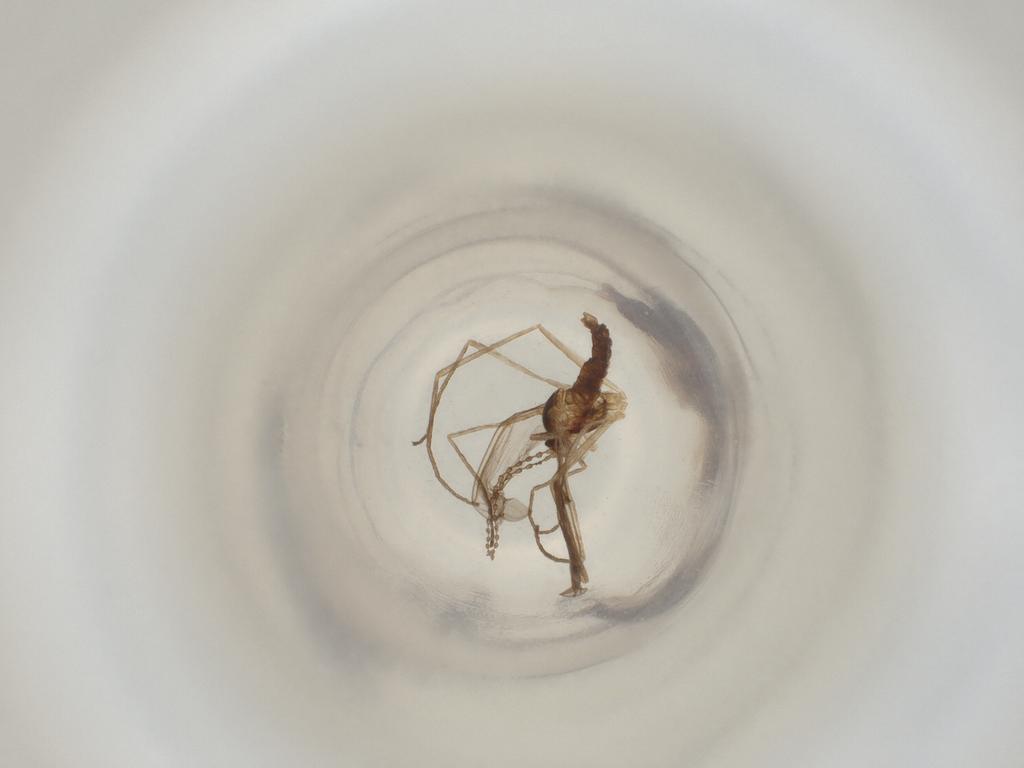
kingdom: Animalia
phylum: Arthropoda
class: Insecta
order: Diptera
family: Cecidomyiidae
